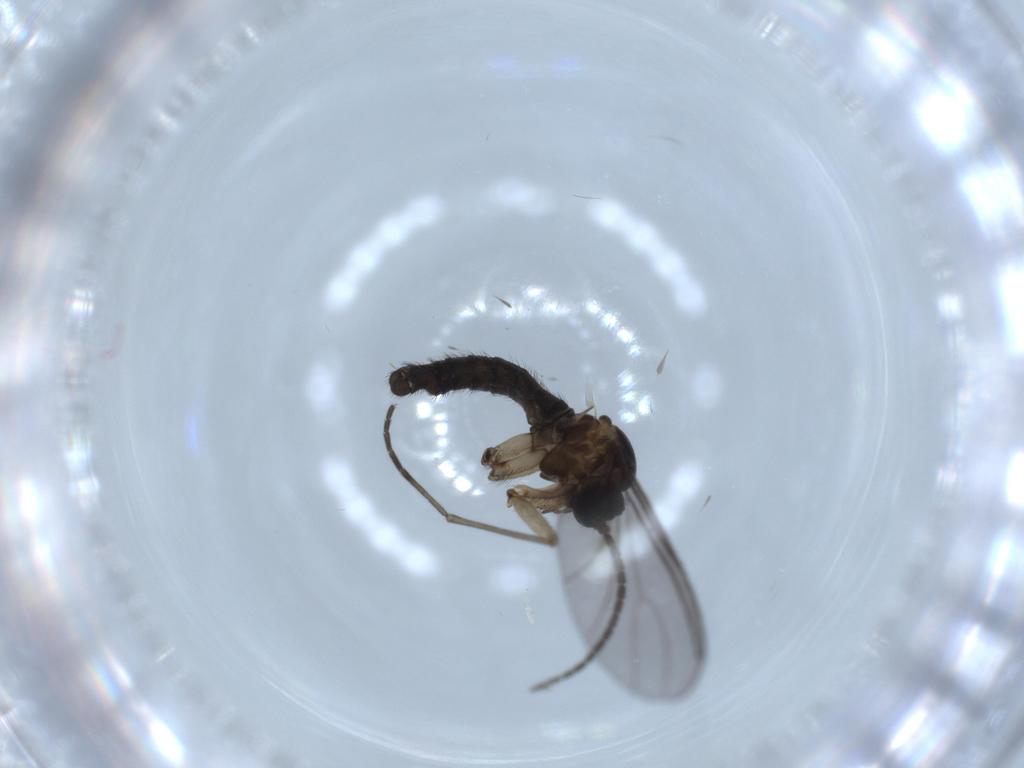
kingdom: Animalia
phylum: Arthropoda
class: Insecta
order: Diptera
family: Sciaridae
